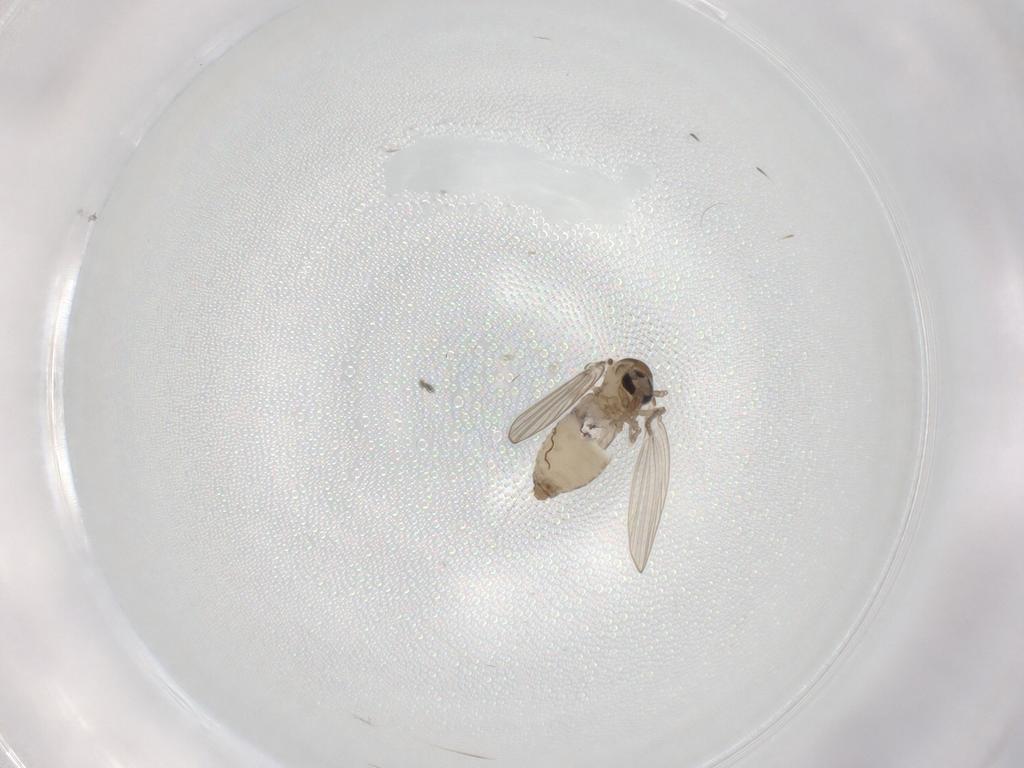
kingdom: Animalia
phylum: Arthropoda
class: Insecta
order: Diptera
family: Psychodidae
